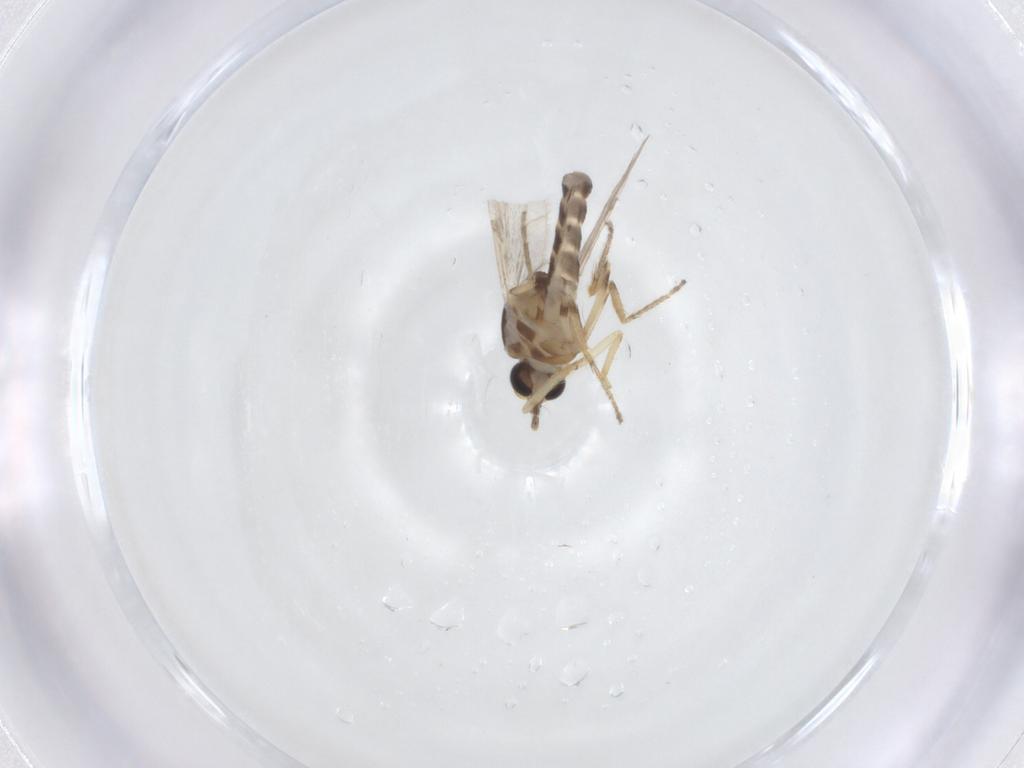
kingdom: Animalia
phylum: Arthropoda
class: Insecta
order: Diptera
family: Ceratopogonidae
